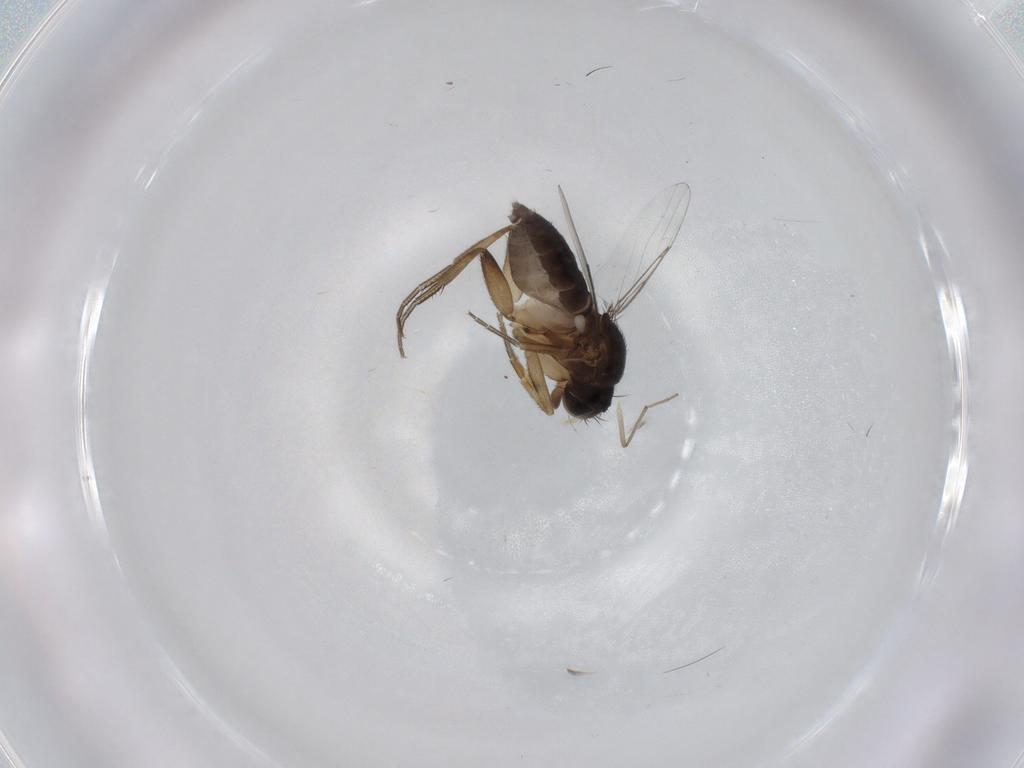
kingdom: Animalia
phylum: Arthropoda
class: Insecta
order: Diptera
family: Phoridae
